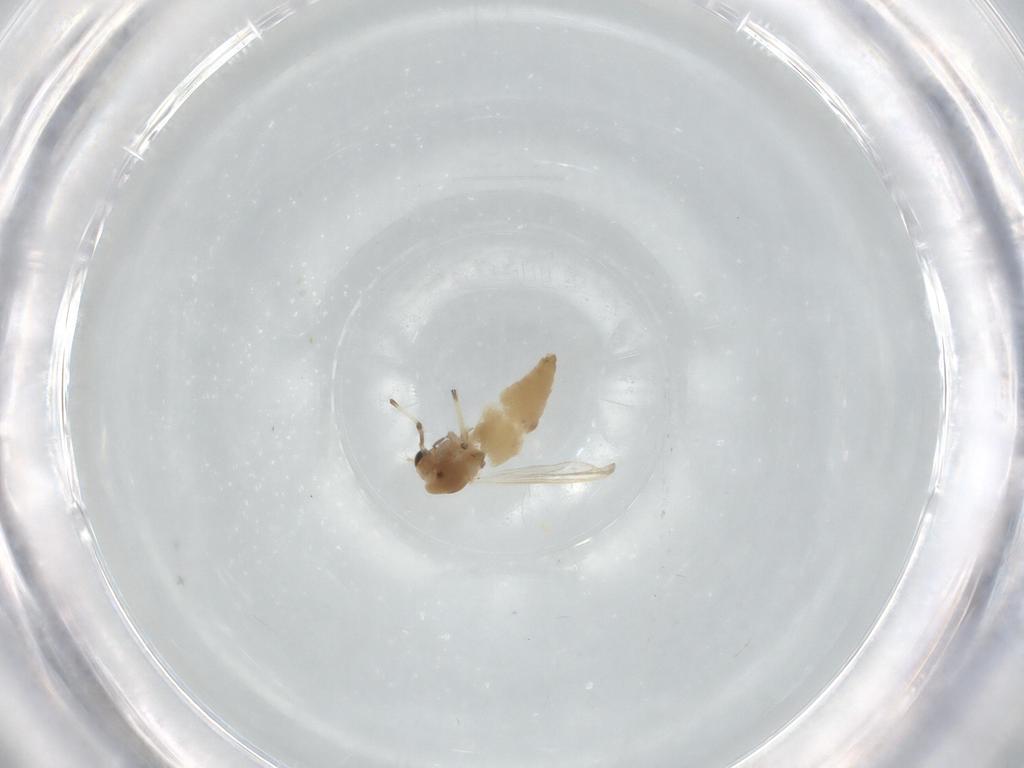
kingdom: Animalia
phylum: Arthropoda
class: Insecta
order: Diptera
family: Chironomidae
